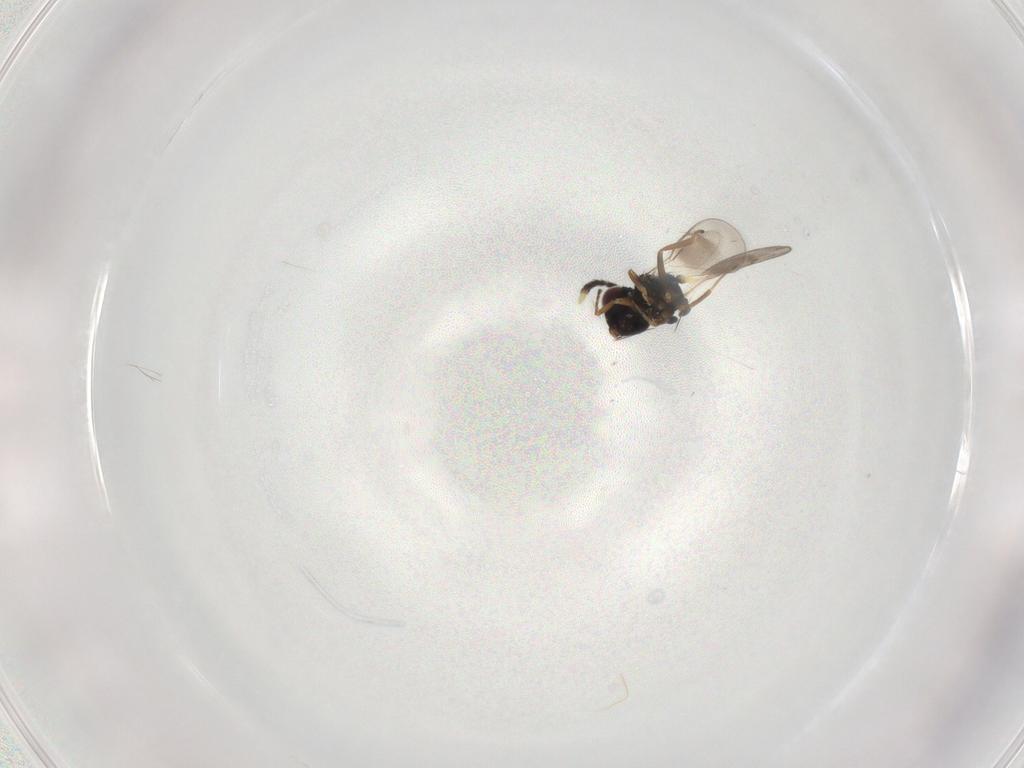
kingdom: Animalia
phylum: Arthropoda
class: Insecta
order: Hymenoptera
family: Eulophidae
